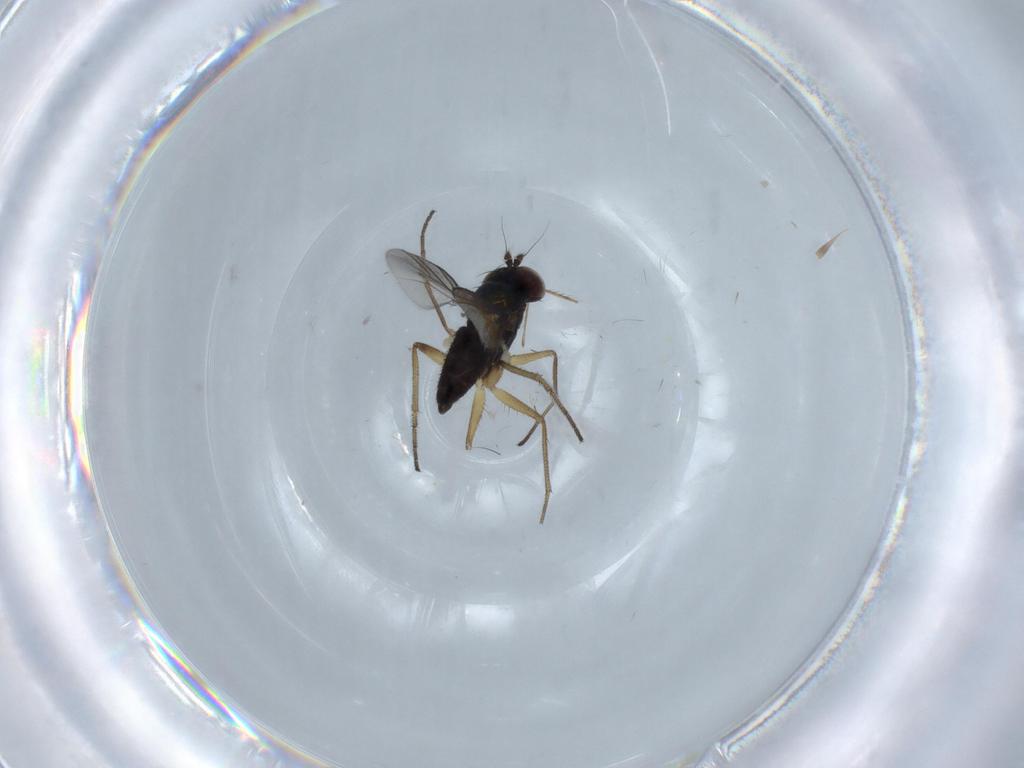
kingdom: Animalia
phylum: Arthropoda
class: Insecta
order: Diptera
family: Dolichopodidae
